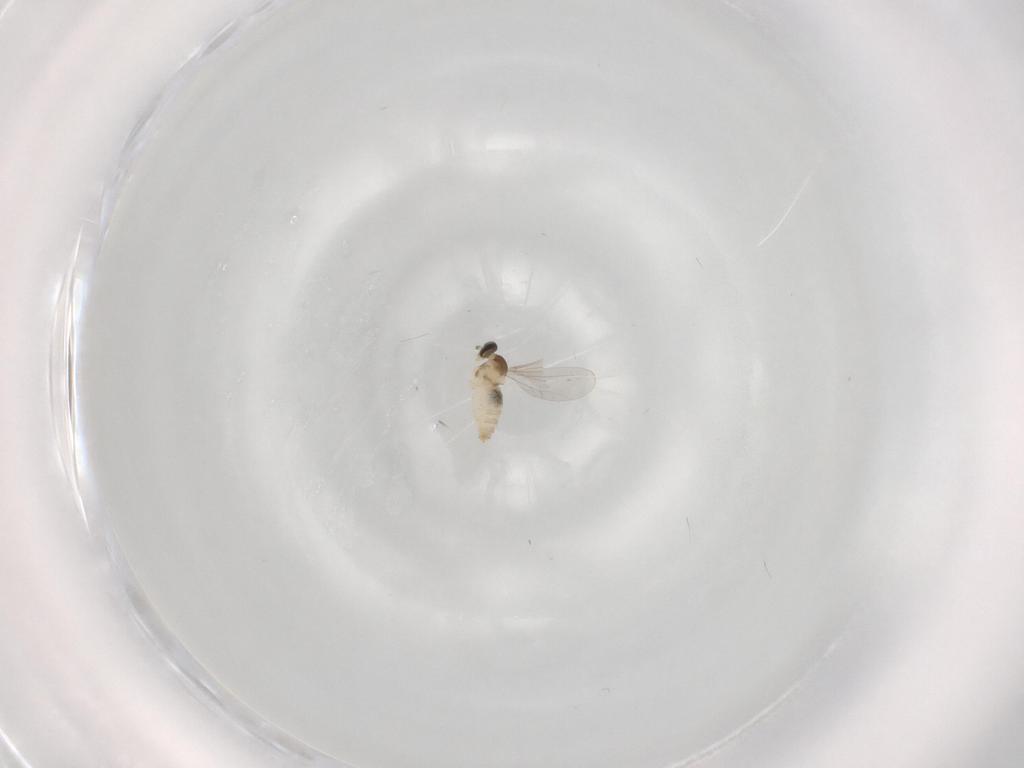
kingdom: Animalia
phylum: Arthropoda
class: Insecta
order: Diptera
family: Cecidomyiidae
